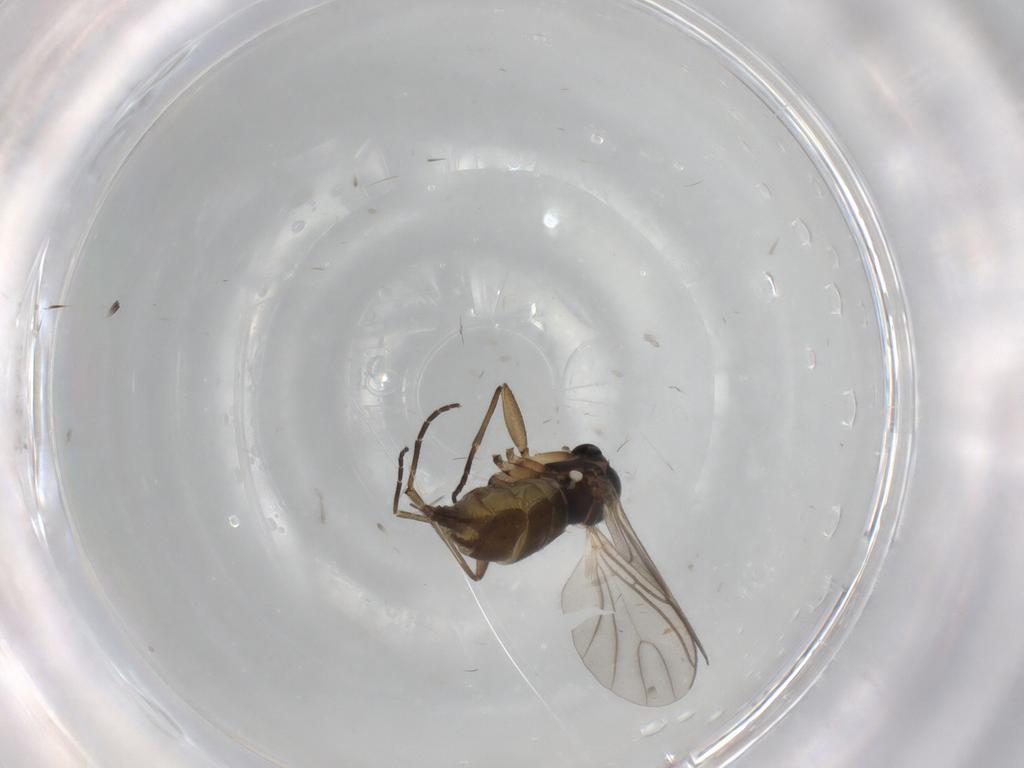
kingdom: Animalia
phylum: Arthropoda
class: Insecta
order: Diptera
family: Chironomidae
